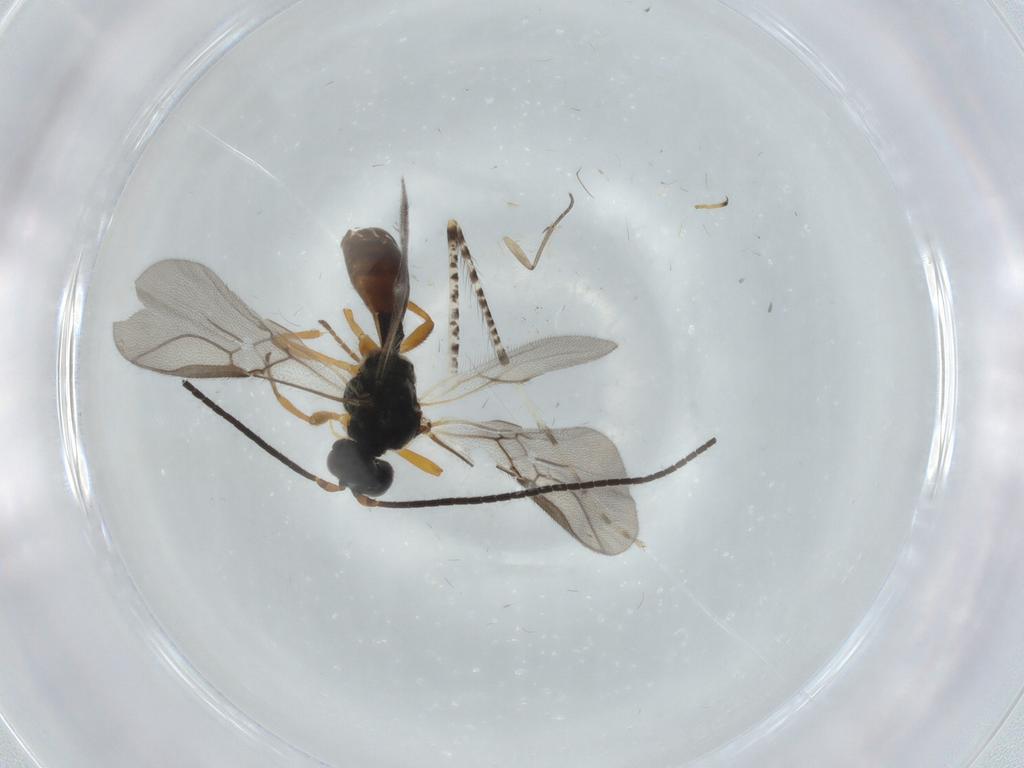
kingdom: Animalia
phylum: Arthropoda
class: Insecta
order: Hymenoptera
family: Braconidae
